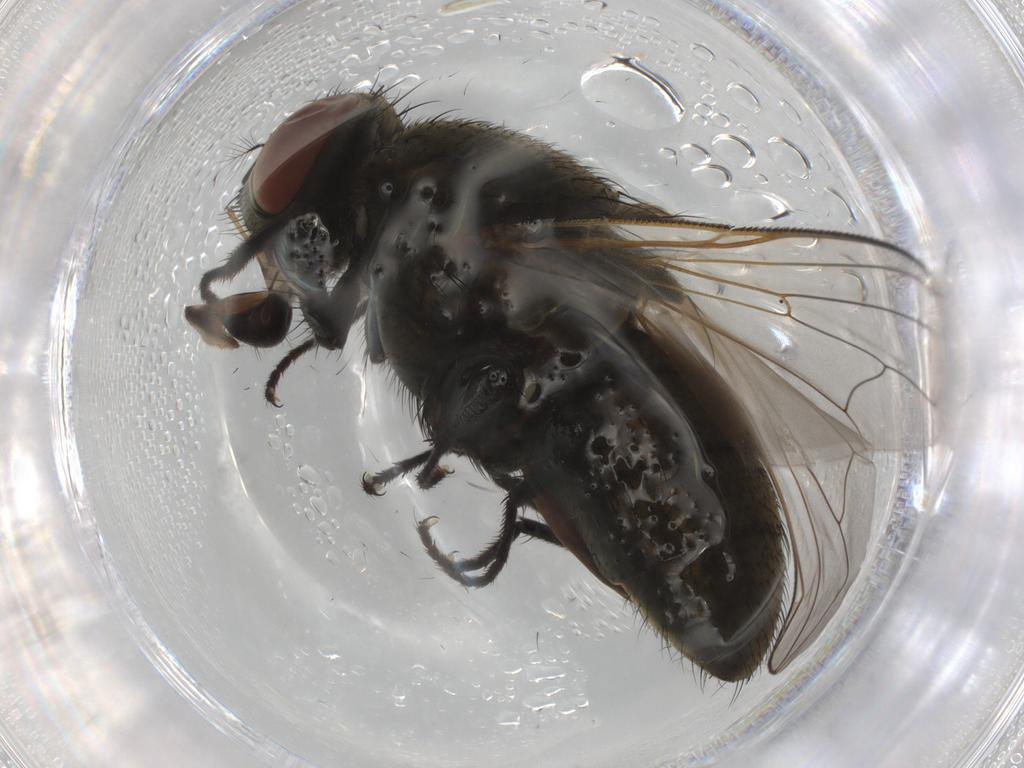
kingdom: Animalia
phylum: Arthropoda
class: Insecta
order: Diptera
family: Muscidae
